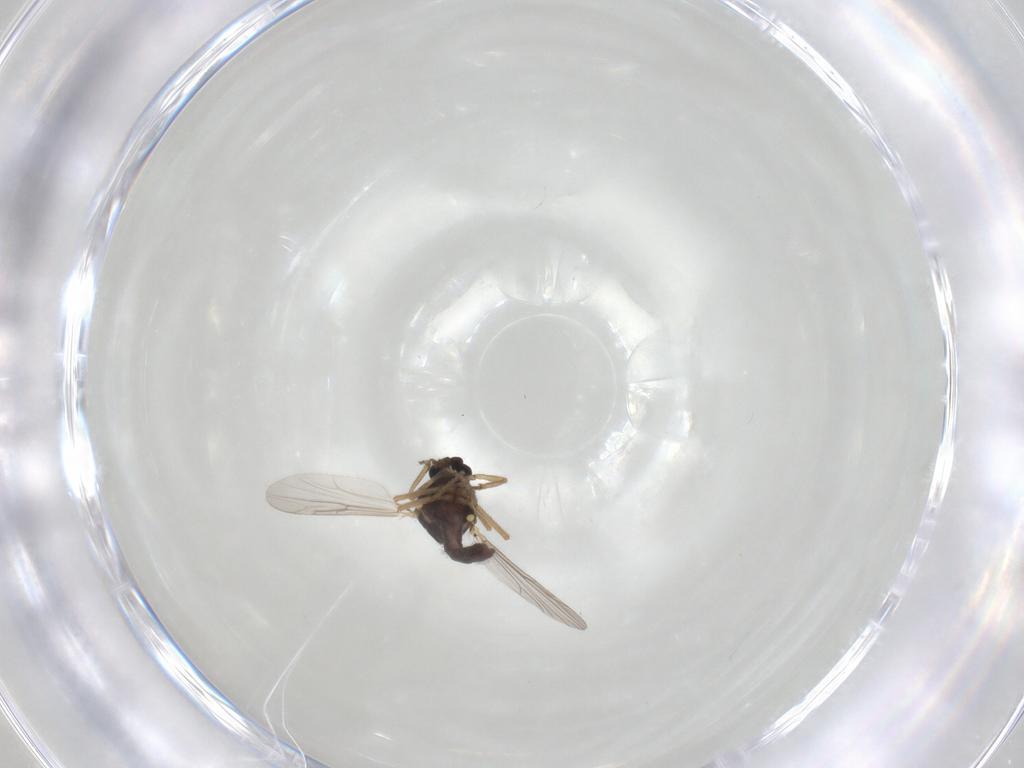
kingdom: Animalia
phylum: Arthropoda
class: Insecta
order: Diptera
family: Ceratopogonidae
